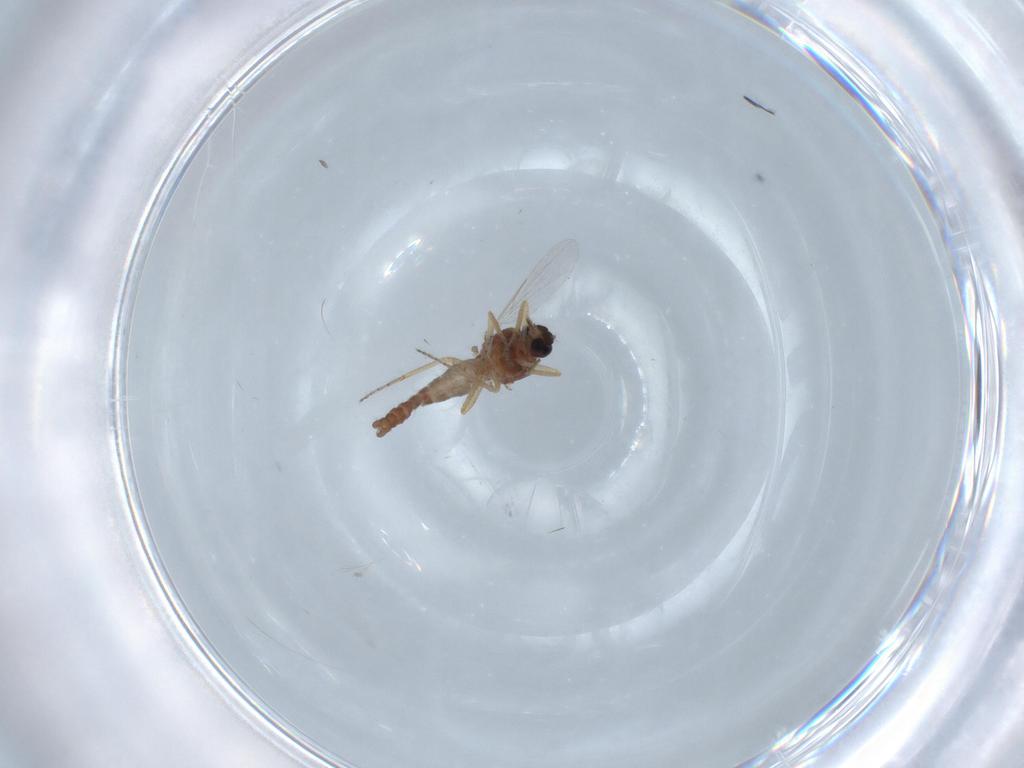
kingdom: Animalia
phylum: Arthropoda
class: Insecta
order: Diptera
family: Ceratopogonidae
